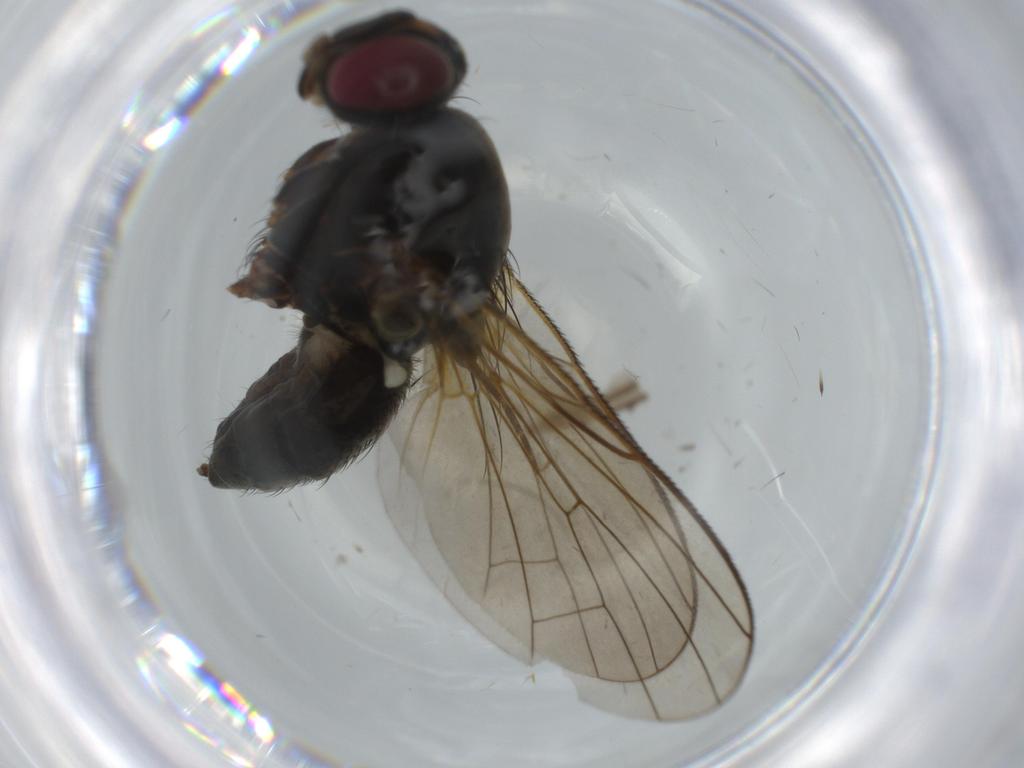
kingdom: Animalia
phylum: Arthropoda
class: Insecta
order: Diptera
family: Anthomyiidae
